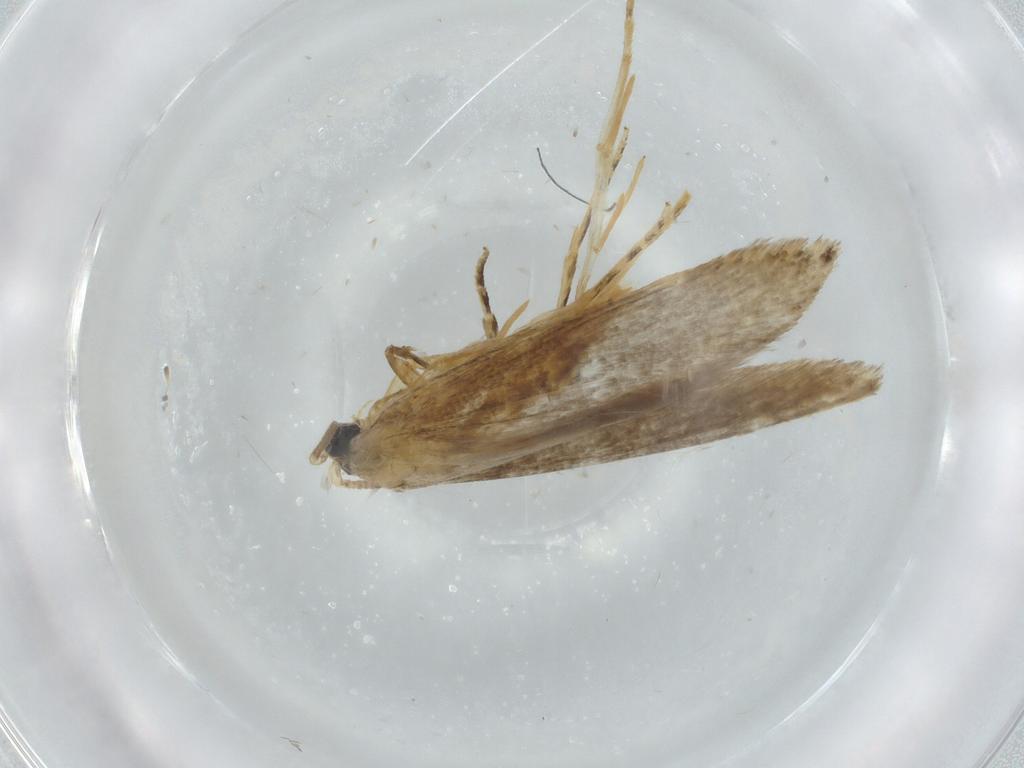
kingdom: Animalia
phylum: Arthropoda
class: Insecta
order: Lepidoptera
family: Tineidae
